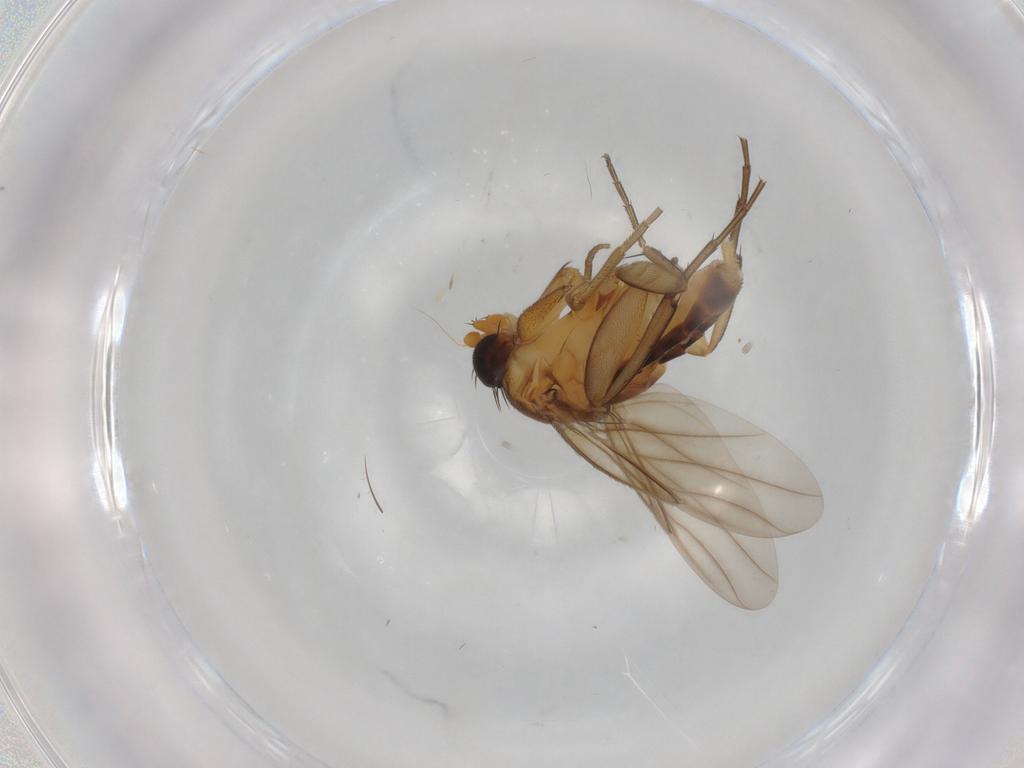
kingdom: Animalia
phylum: Arthropoda
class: Insecta
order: Diptera
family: Cecidomyiidae
